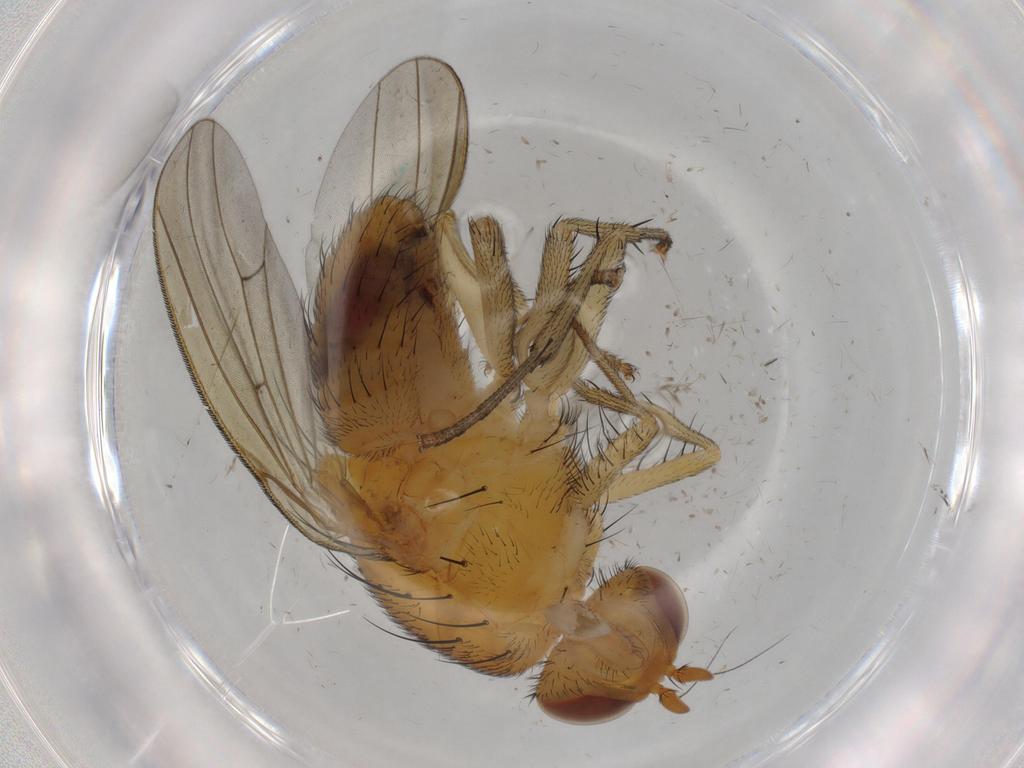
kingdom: Animalia
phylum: Arthropoda
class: Insecta
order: Diptera
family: Cecidomyiidae
